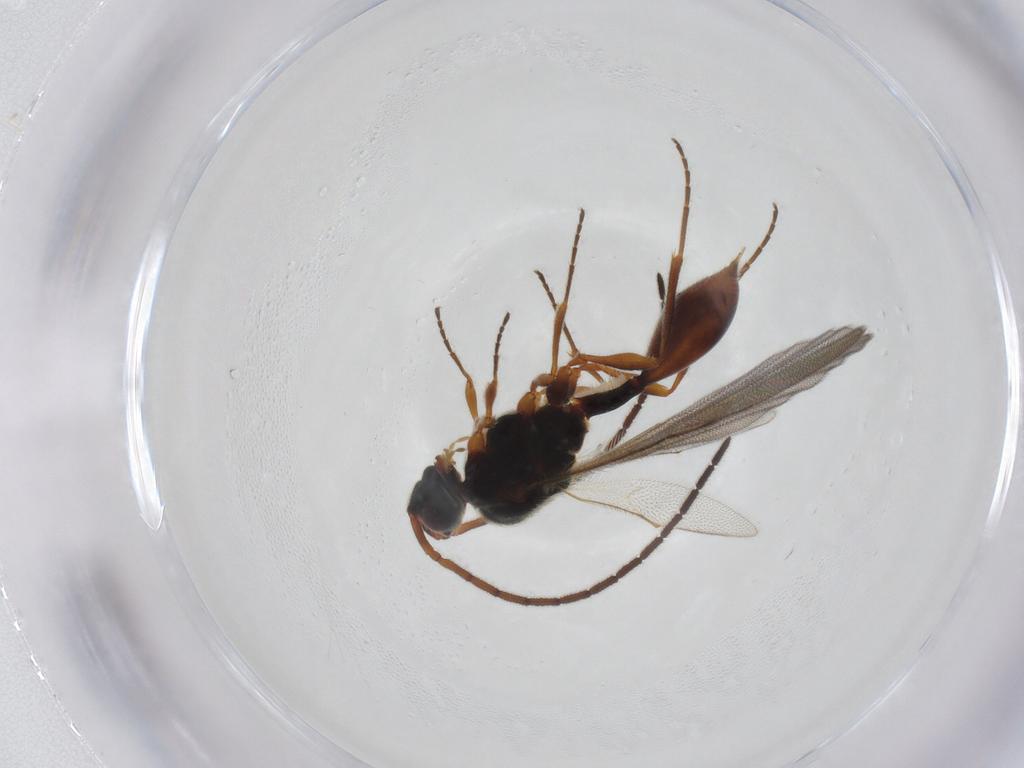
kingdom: Animalia
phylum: Arthropoda
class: Insecta
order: Hymenoptera
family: Diapriidae
